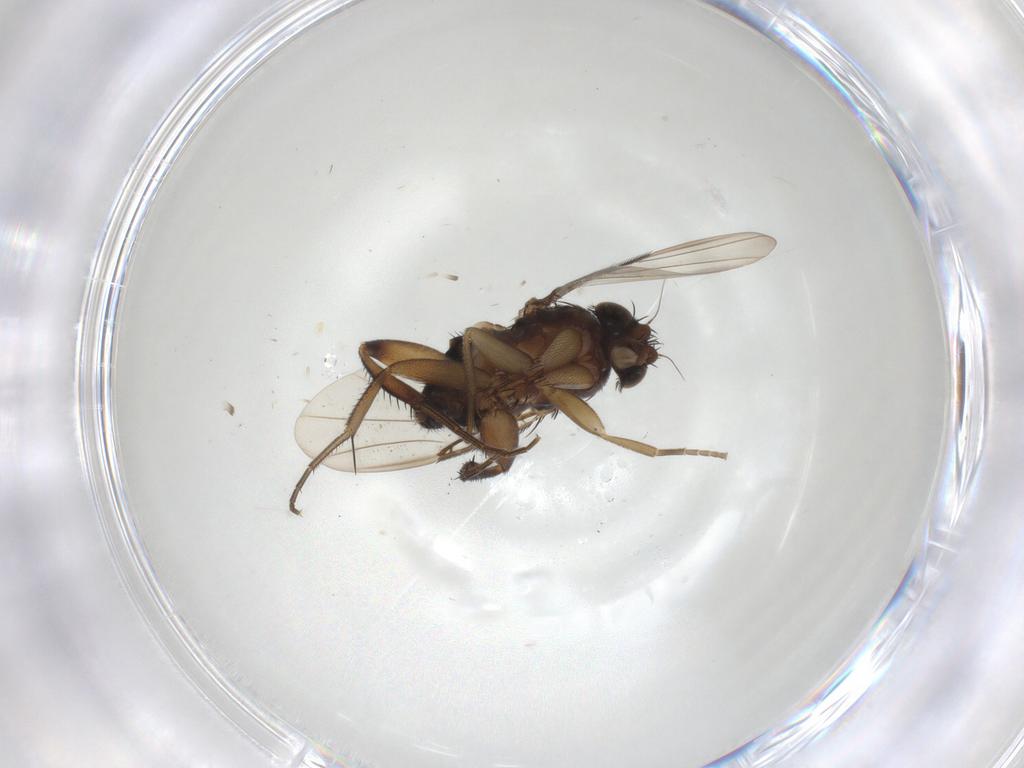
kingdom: Animalia
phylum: Arthropoda
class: Insecta
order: Diptera
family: Phoridae
